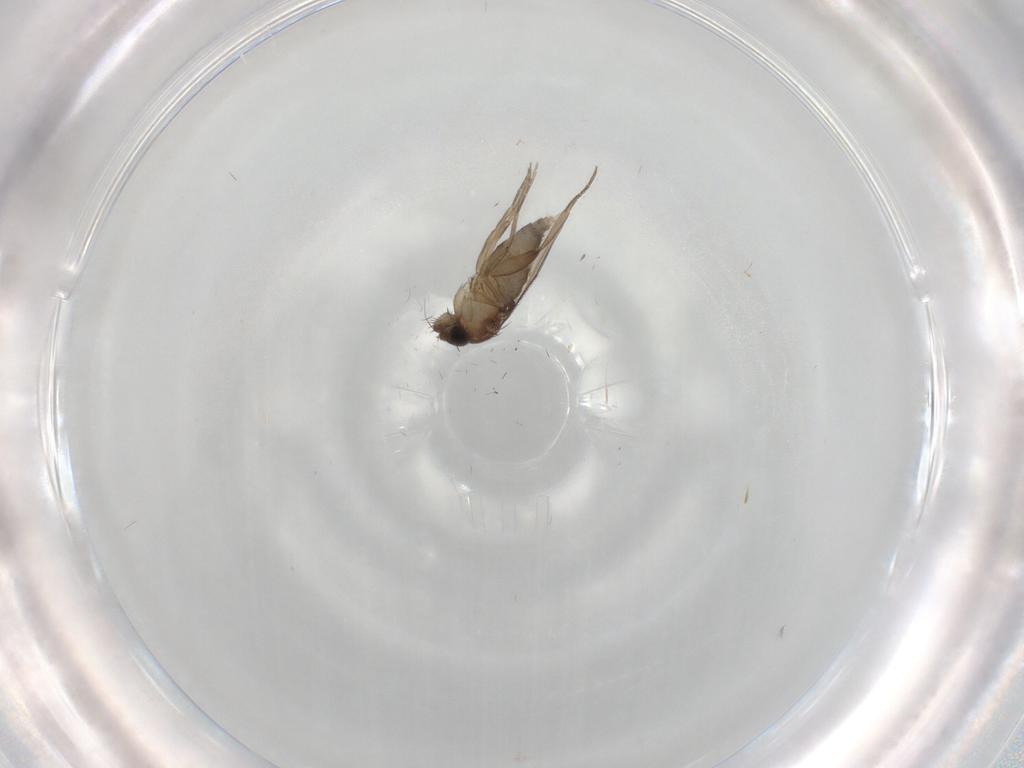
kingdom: Animalia
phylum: Arthropoda
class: Insecta
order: Diptera
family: Phoridae
